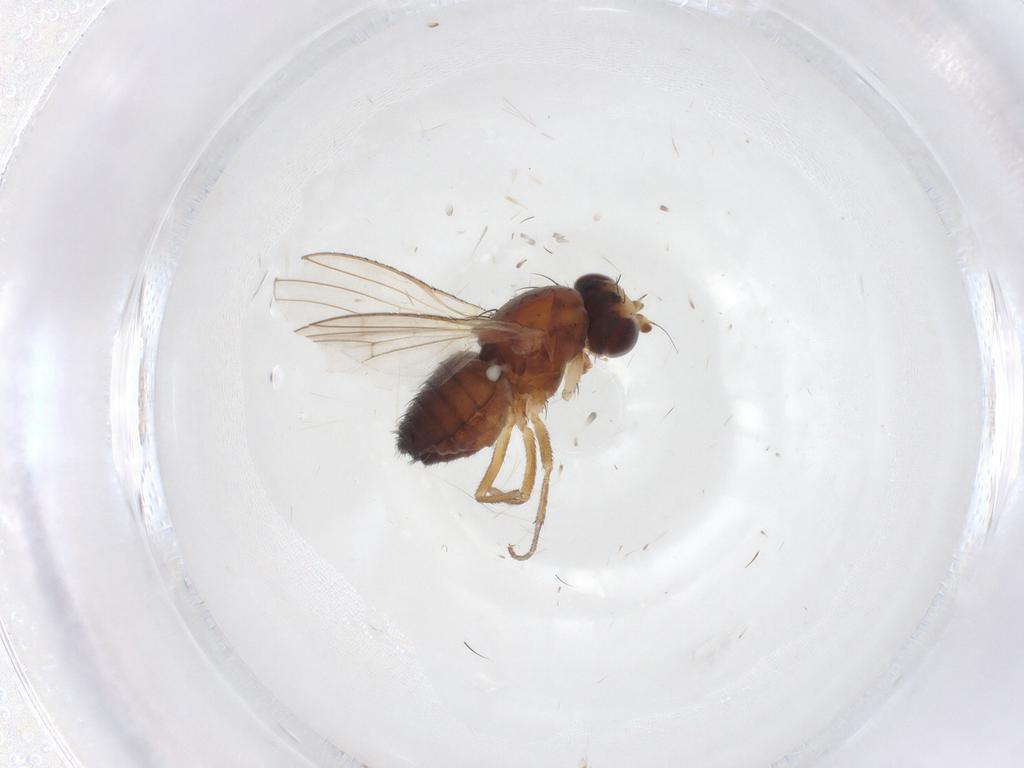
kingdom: Animalia
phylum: Arthropoda
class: Insecta
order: Diptera
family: Heleomyzidae
